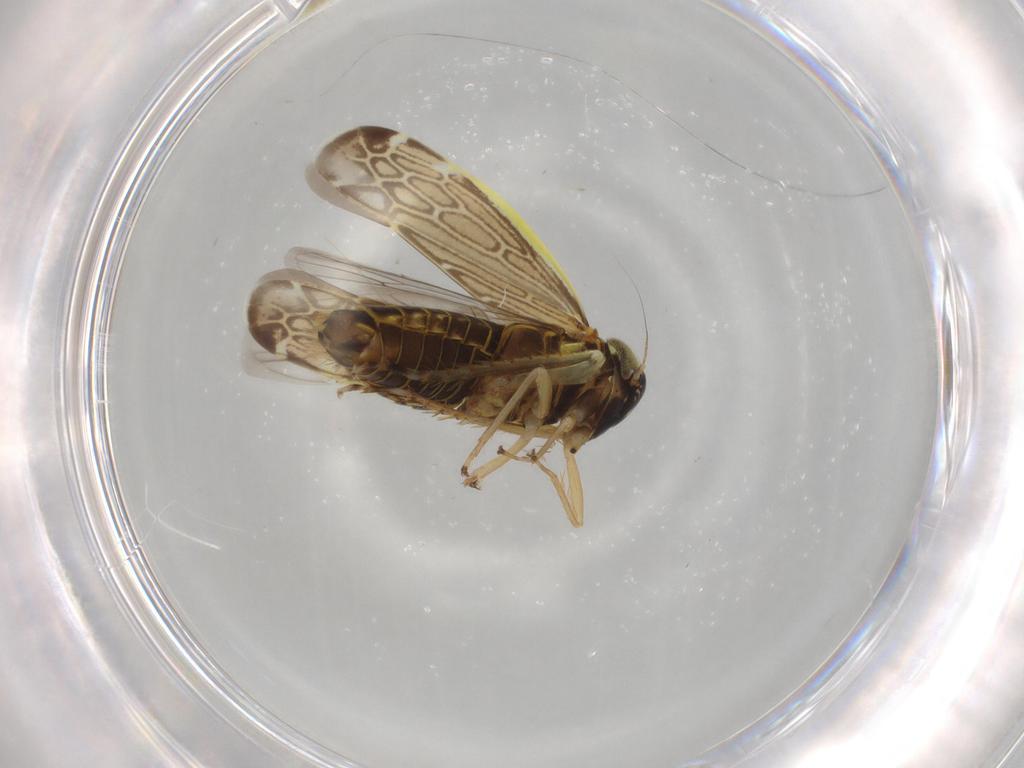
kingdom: Animalia
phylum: Arthropoda
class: Insecta
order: Hemiptera
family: Cicadellidae
